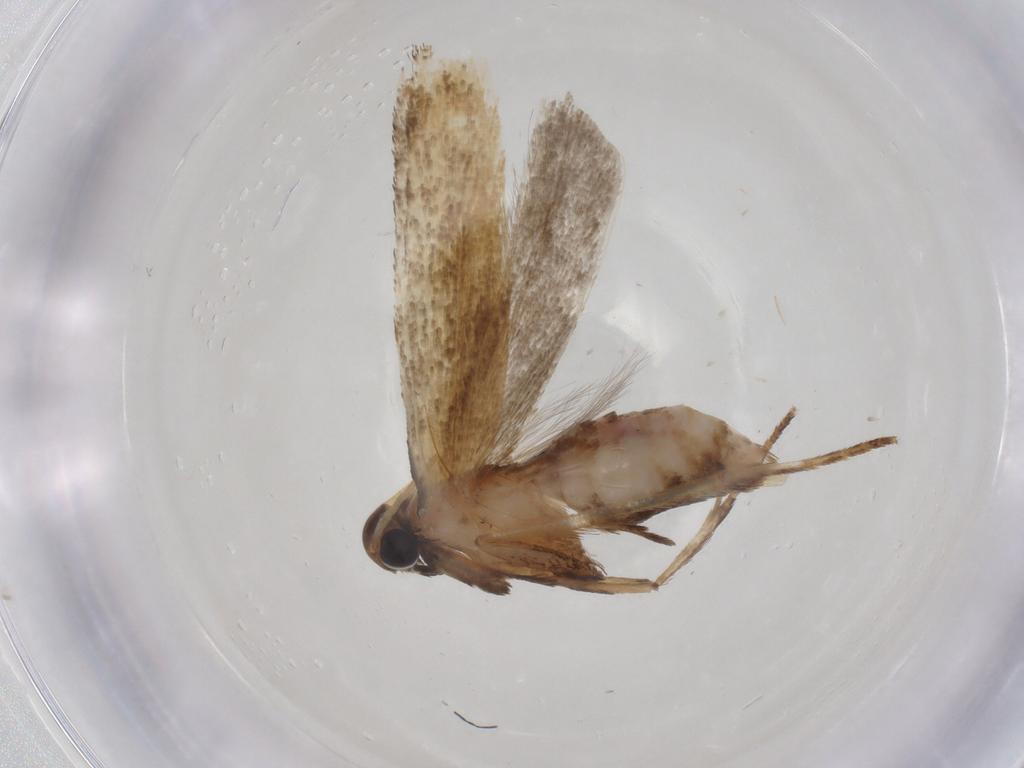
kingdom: Animalia
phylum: Arthropoda
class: Insecta
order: Lepidoptera
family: Gelechiidae
